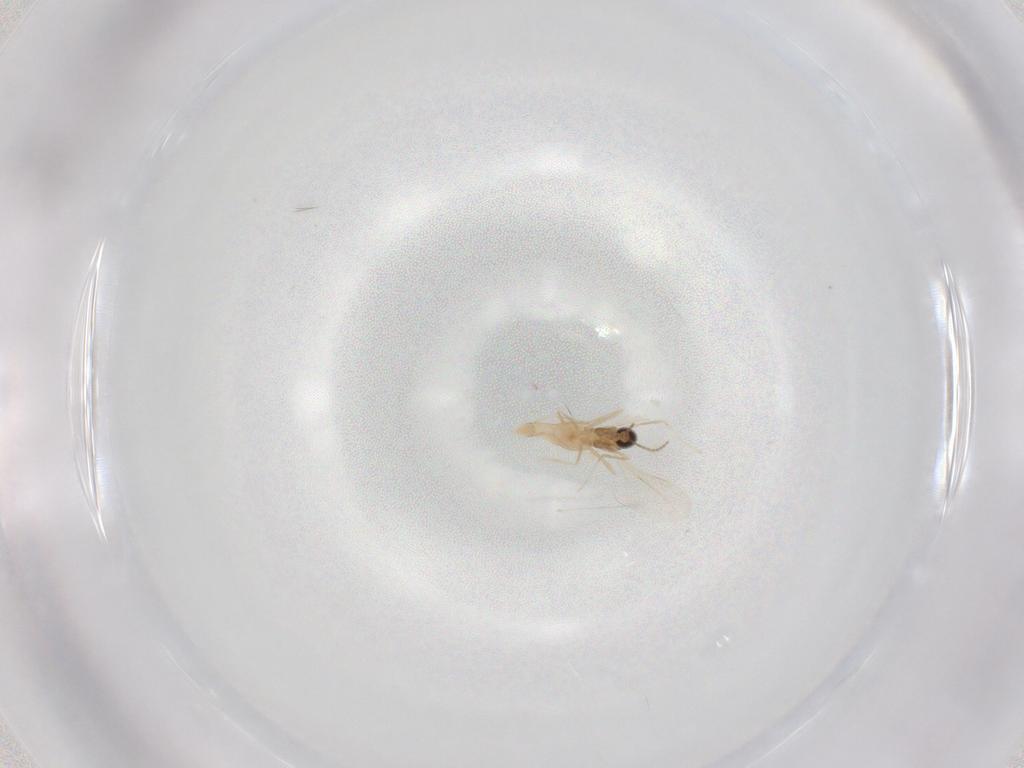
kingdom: Animalia
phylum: Arthropoda
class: Insecta
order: Diptera
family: Cecidomyiidae
